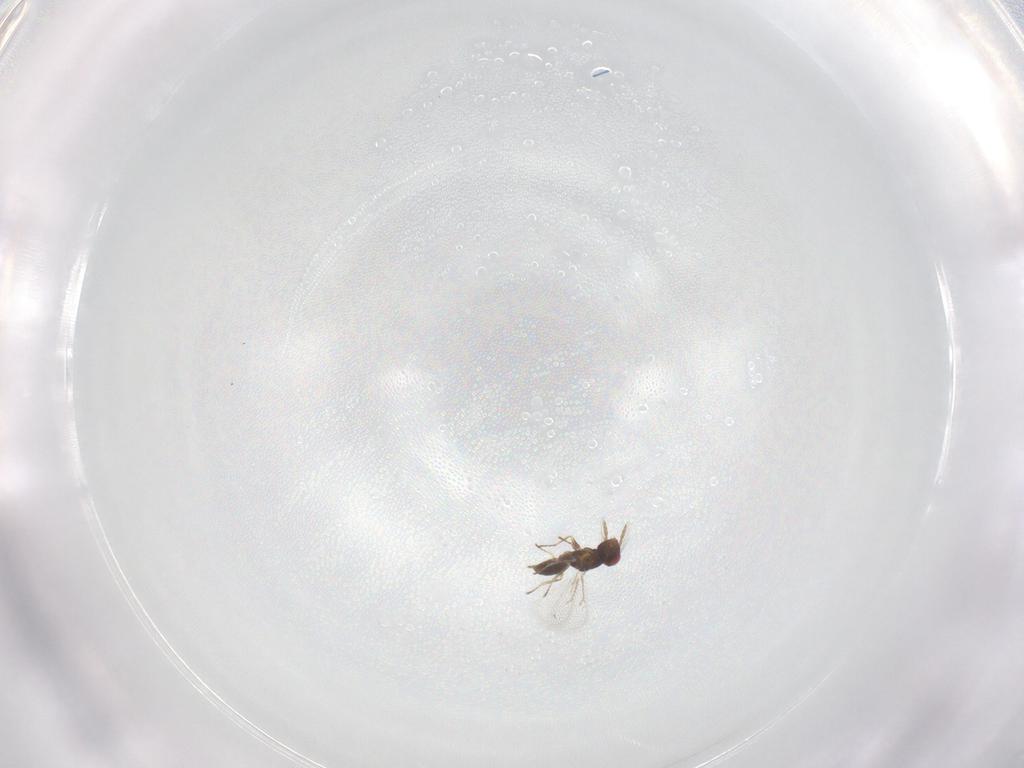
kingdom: Animalia
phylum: Arthropoda
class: Insecta
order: Hymenoptera
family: Eulophidae
